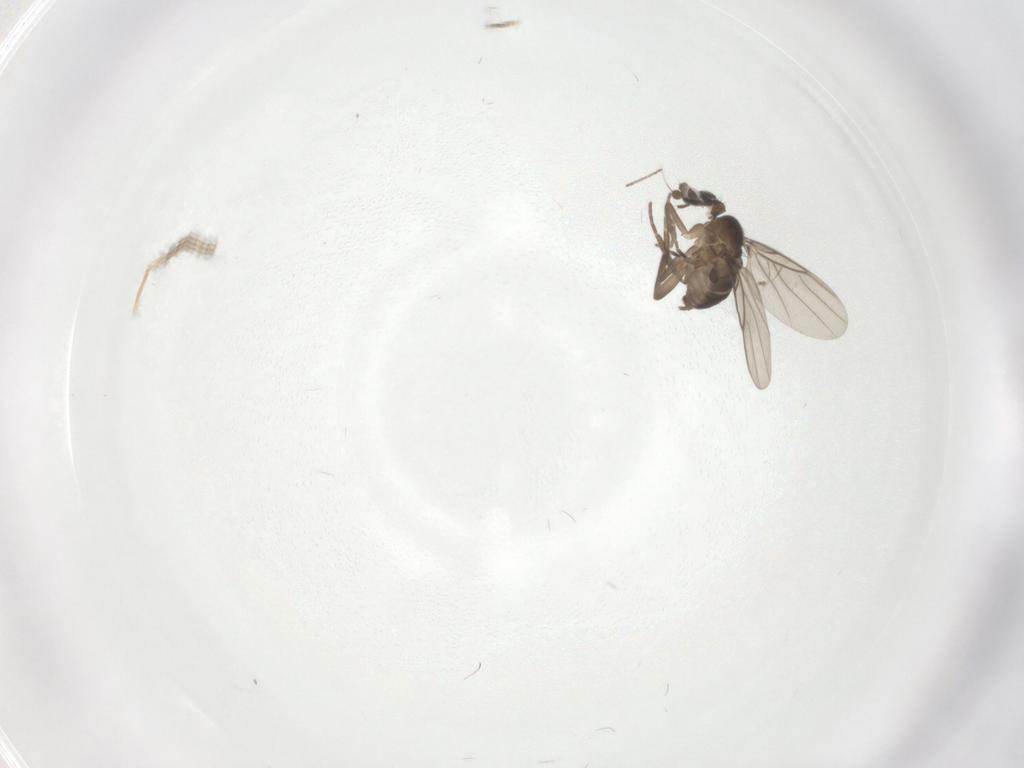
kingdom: Animalia
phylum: Arthropoda
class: Insecta
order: Diptera
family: Phoridae
